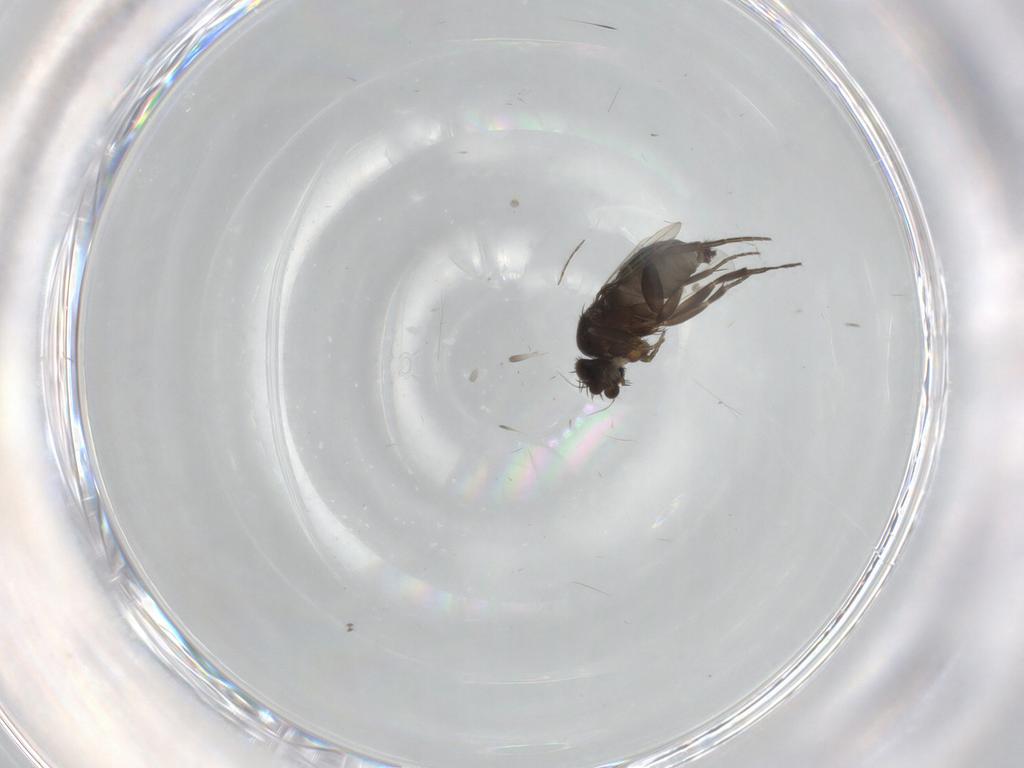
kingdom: Animalia
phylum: Arthropoda
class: Insecta
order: Diptera
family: Phoridae
